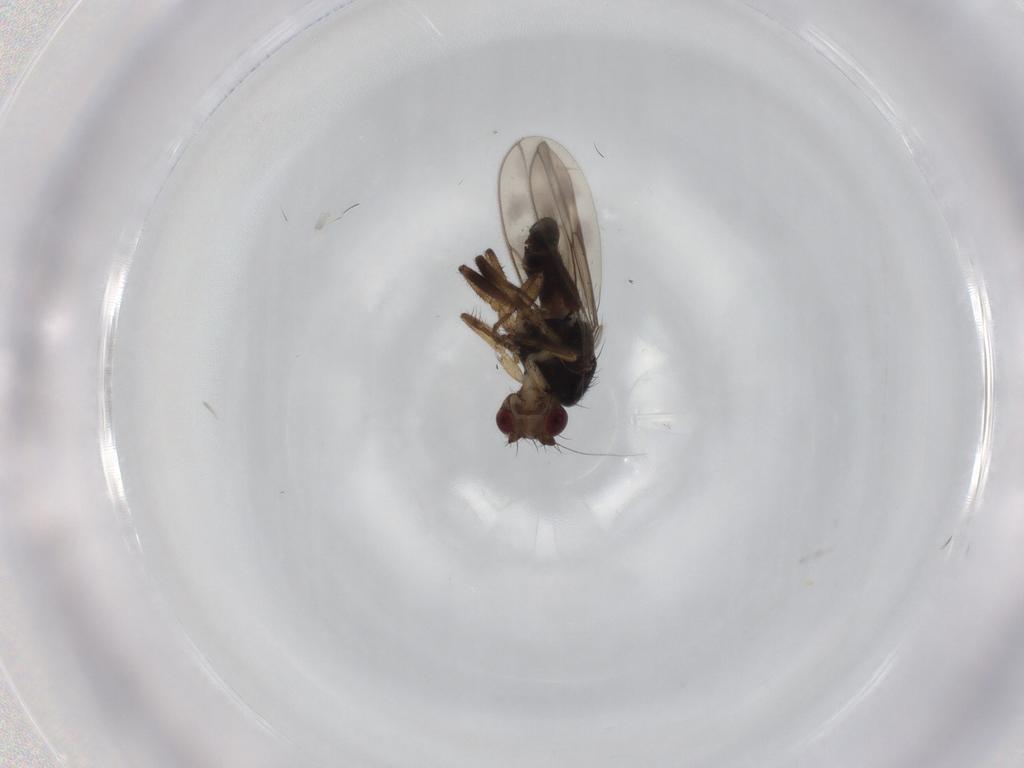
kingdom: Animalia
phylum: Arthropoda
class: Insecta
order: Diptera
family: Sphaeroceridae
